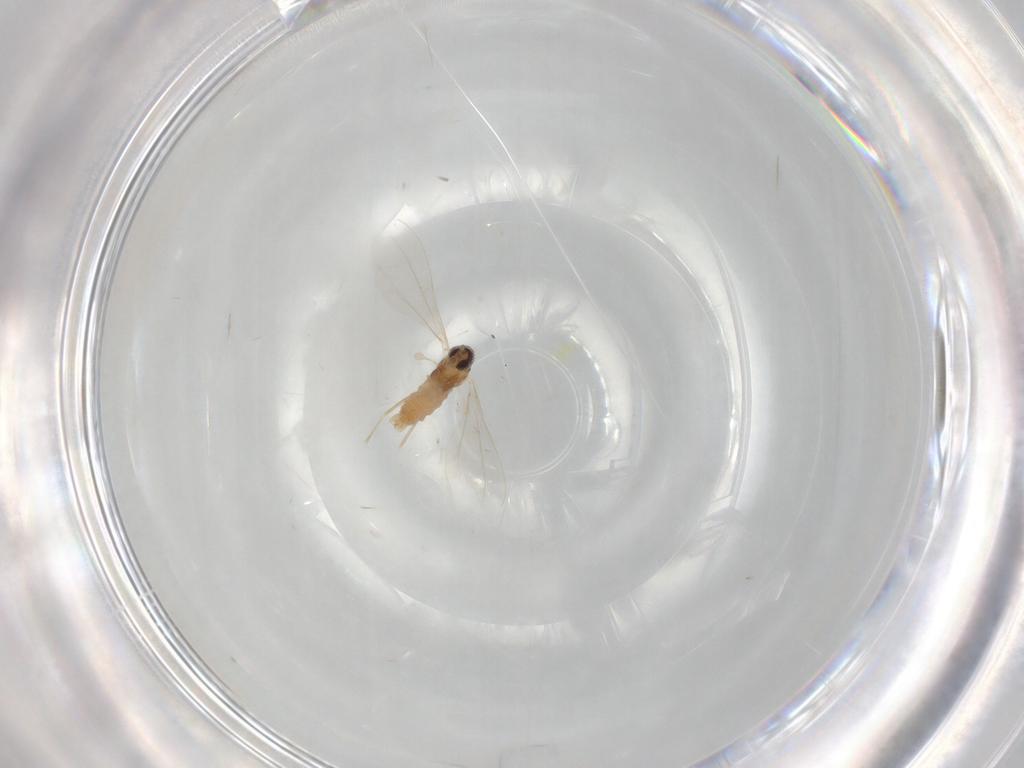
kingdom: Animalia
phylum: Arthropoda
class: Insecta
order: Diptera
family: Cecidomyiidae
